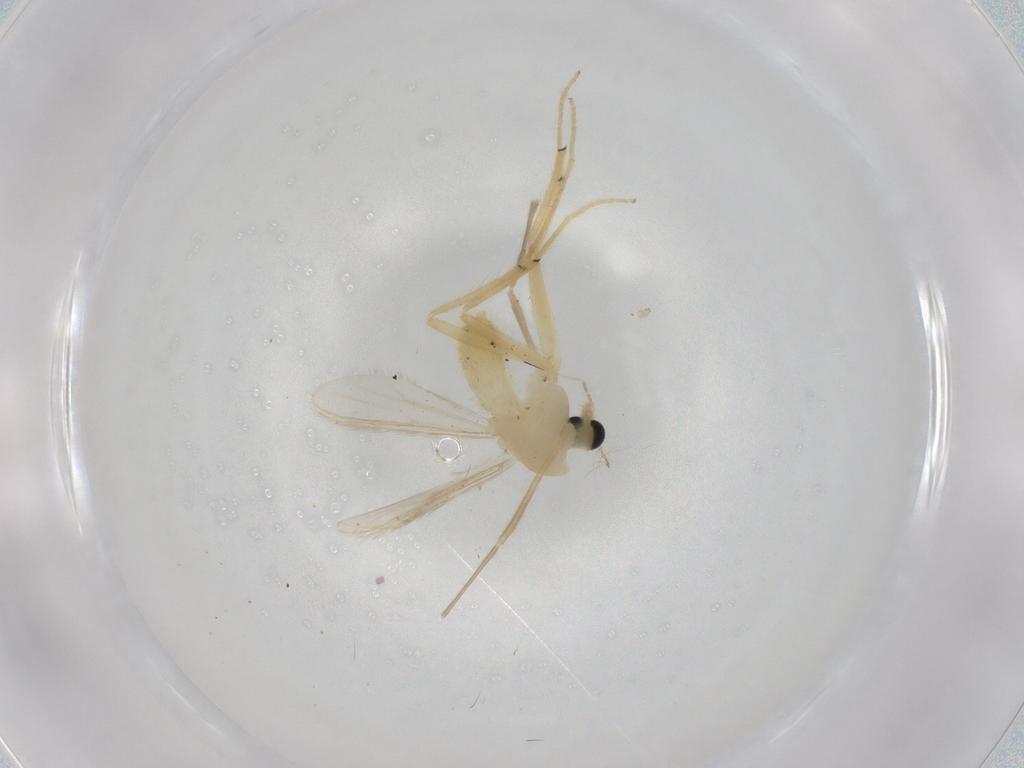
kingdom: Animalia
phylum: Arthropoda
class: Insecta
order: Diptera
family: Chironomidae
